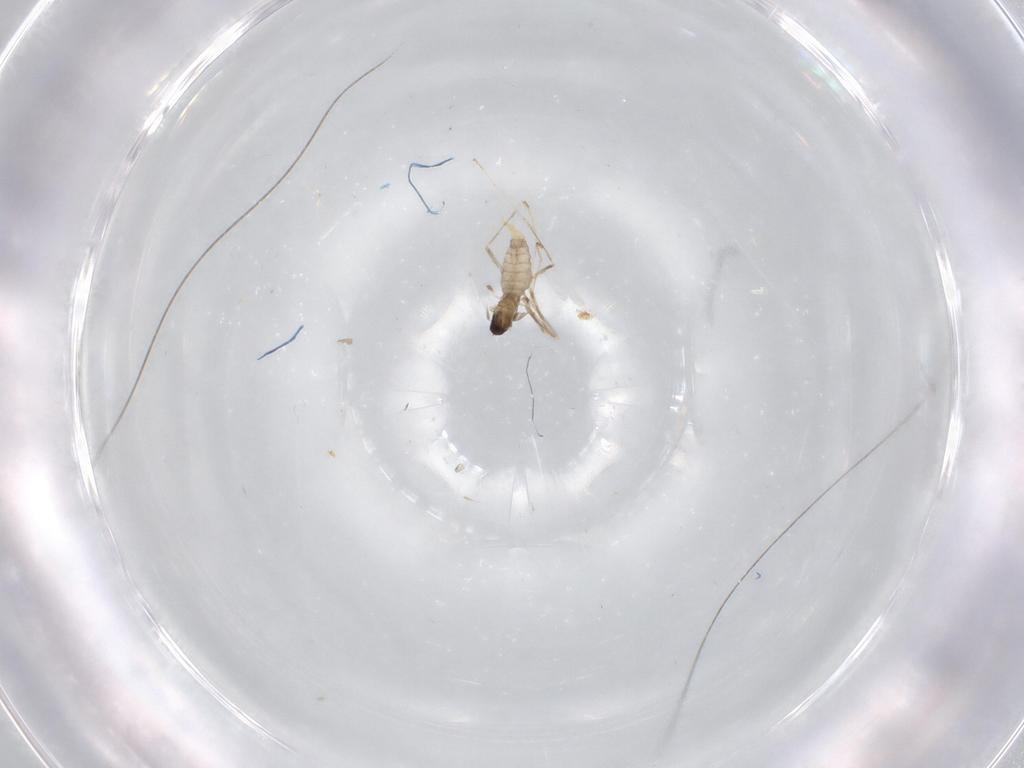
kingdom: Animalia
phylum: Arthropoda
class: Insecta
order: Diptera
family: Cecidomyiidae
